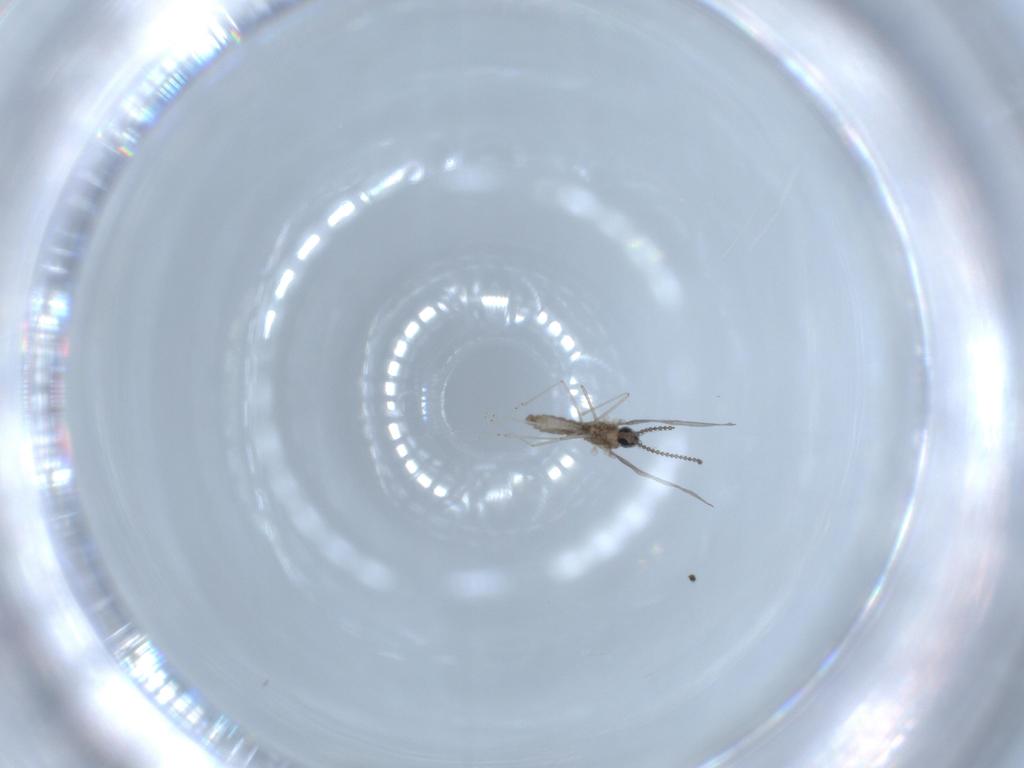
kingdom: Animalia
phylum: Arthropoda
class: Insecta
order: Diptera
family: Cecidomyiidae
